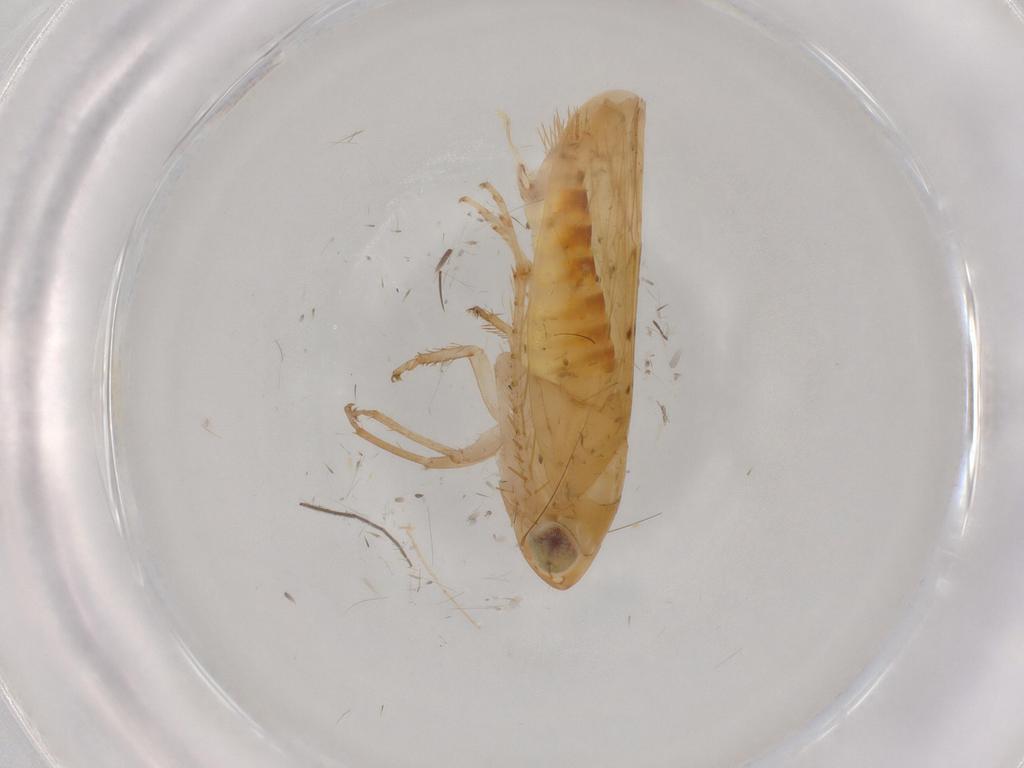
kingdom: Animalia
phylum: Arthropoda
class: Insecta
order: Hemiptera
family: Cicadellidae
